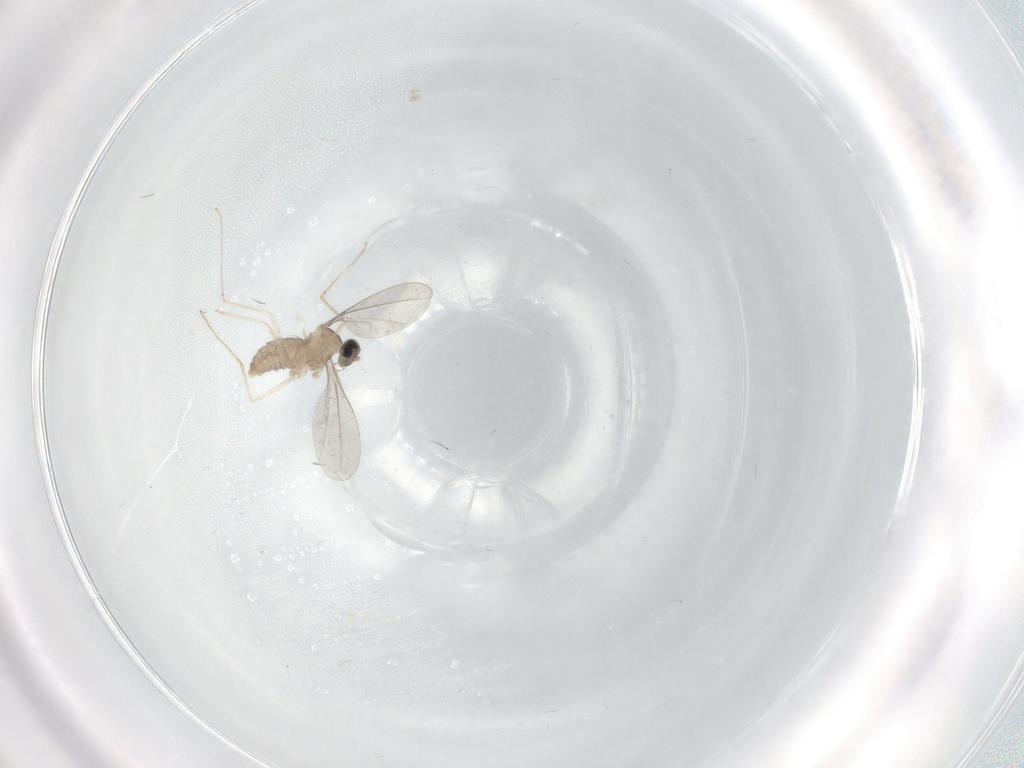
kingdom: Animalia
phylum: Arthropoda
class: Insecta
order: Diptera
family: Cecidomyiidae
